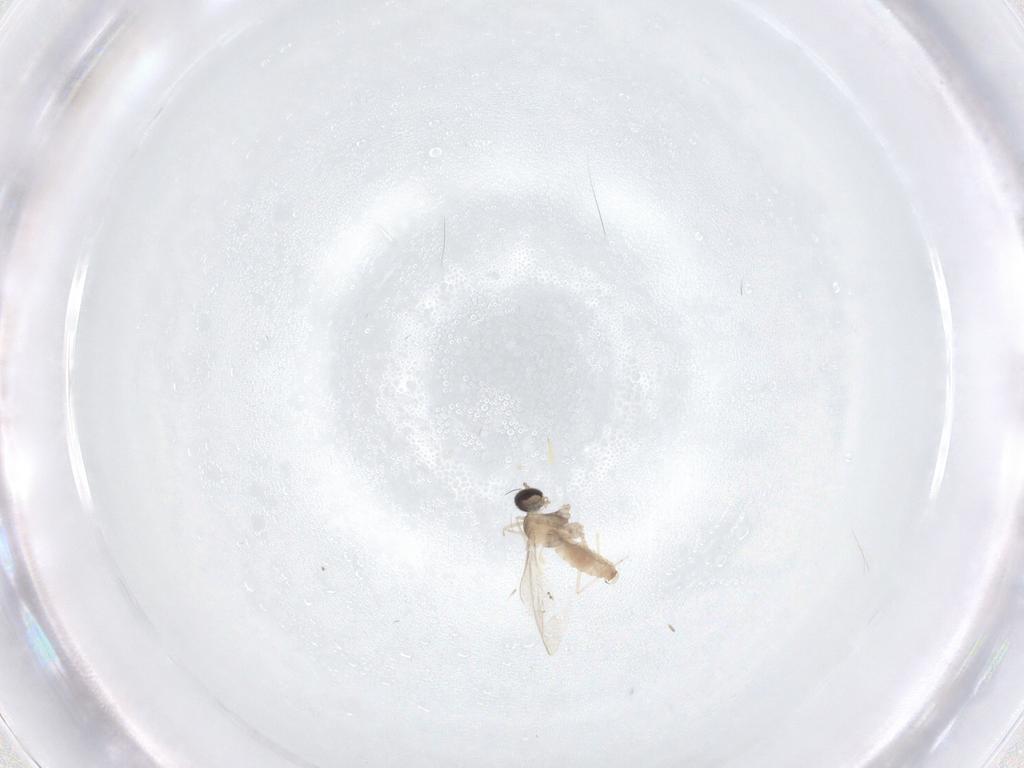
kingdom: Animalia
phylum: Arthropoda
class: Insecta
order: Diptera
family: Cecidomyiidae
